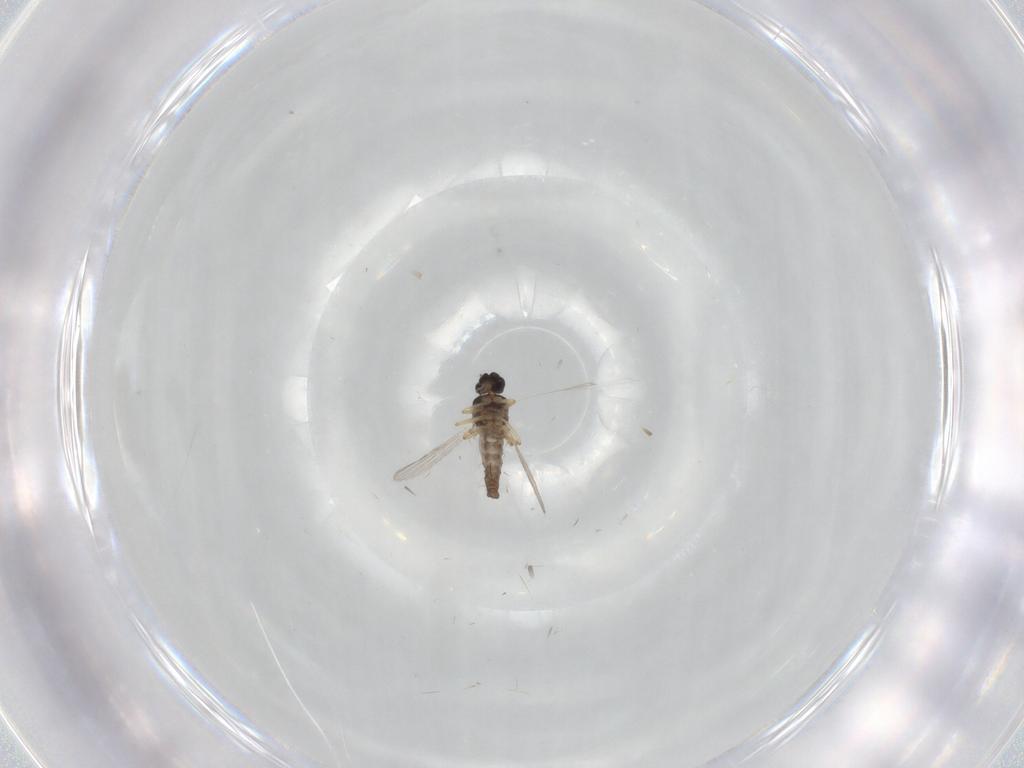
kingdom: Animalia
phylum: Arthropoda
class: Insecta
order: Diptera
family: Ceratopogonidae
